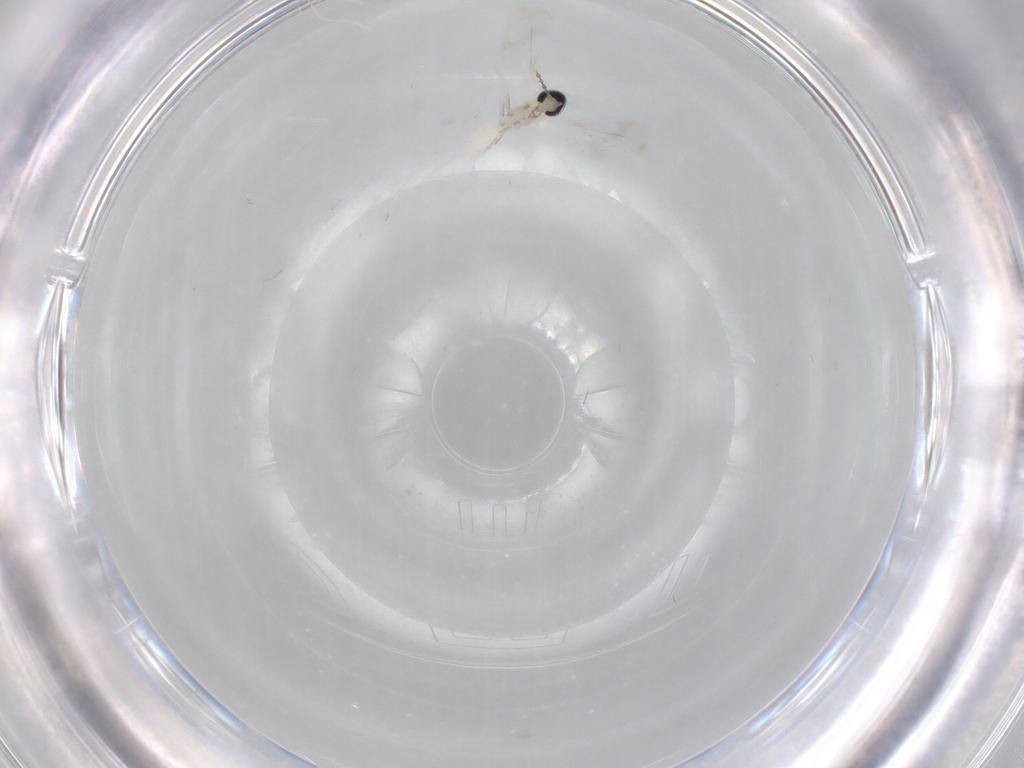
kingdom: Animalia
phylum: Arthropoda
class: Insecta
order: Diptera
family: Cecidomyiidae
